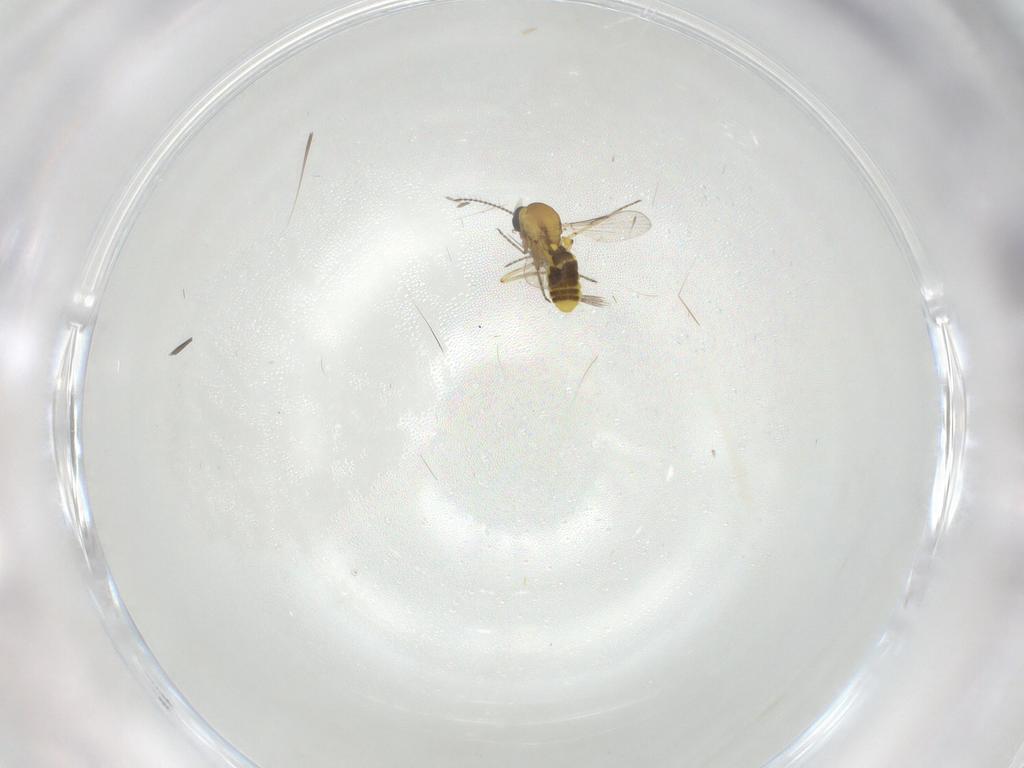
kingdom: Animalia
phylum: Arthropoda
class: Insecta
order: Diptera
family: Ceratopogonidae
